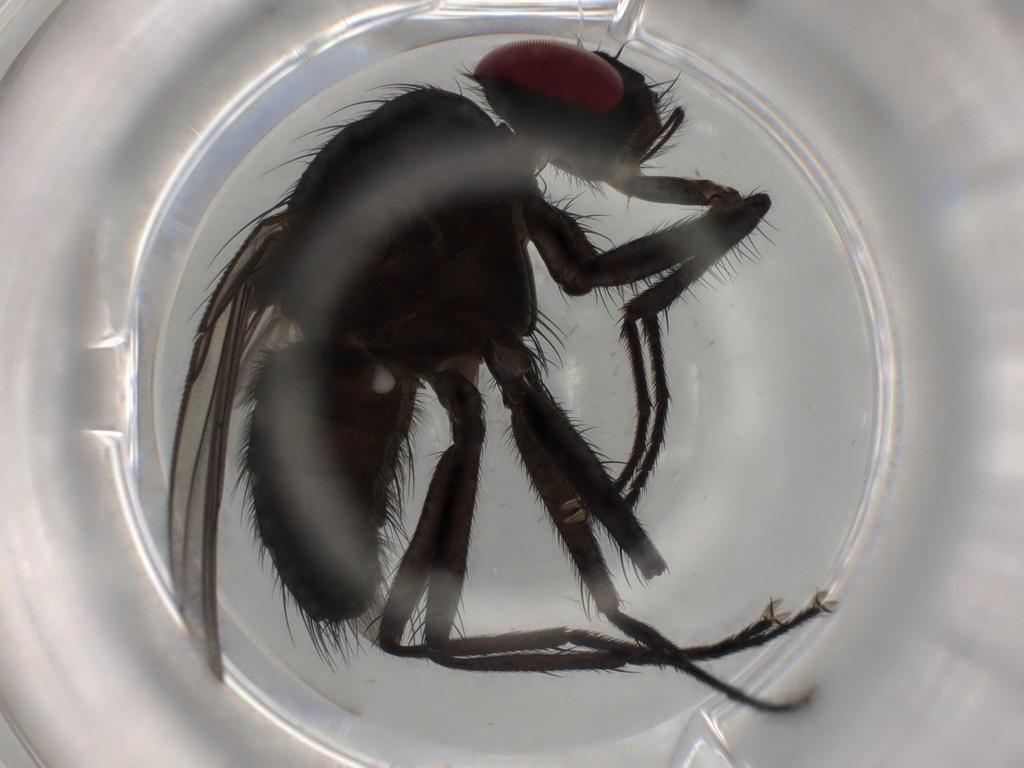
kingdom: Animalia
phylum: Arthropoda
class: Insecta
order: Diptera
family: Muscidae
